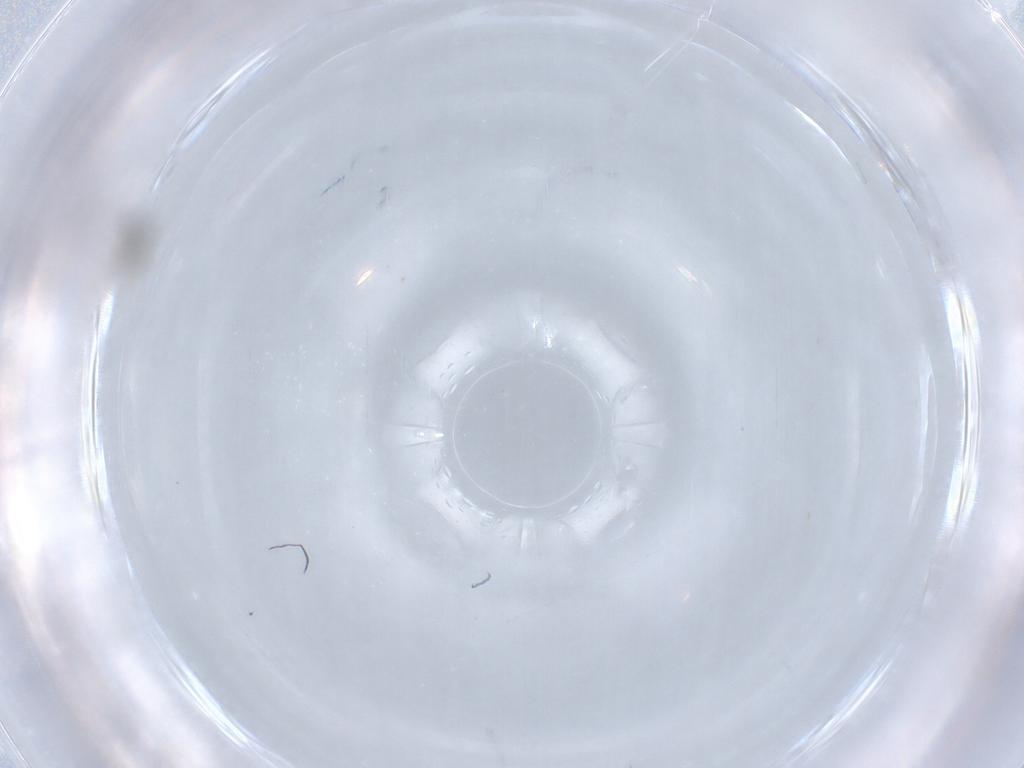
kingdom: Animalia
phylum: Arthropoda
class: Insecta
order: Diptera
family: Cecidomyiidae
